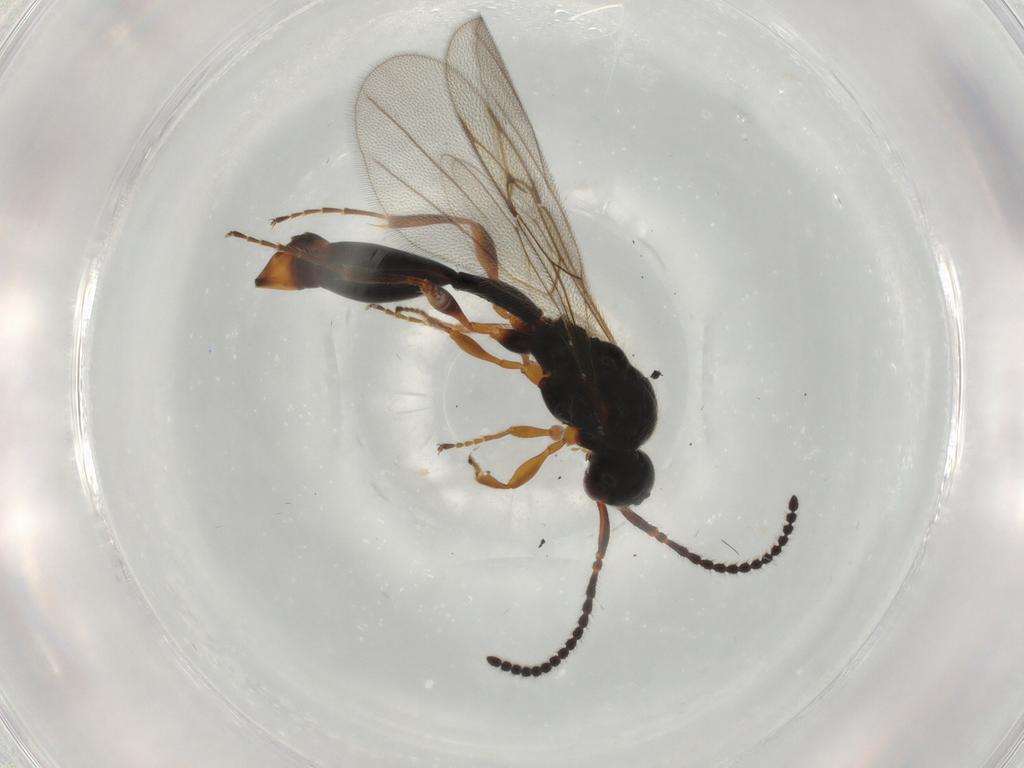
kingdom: Animalia
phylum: Arthropoda
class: Insecta
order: Hymenoptera
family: Diapriidae
